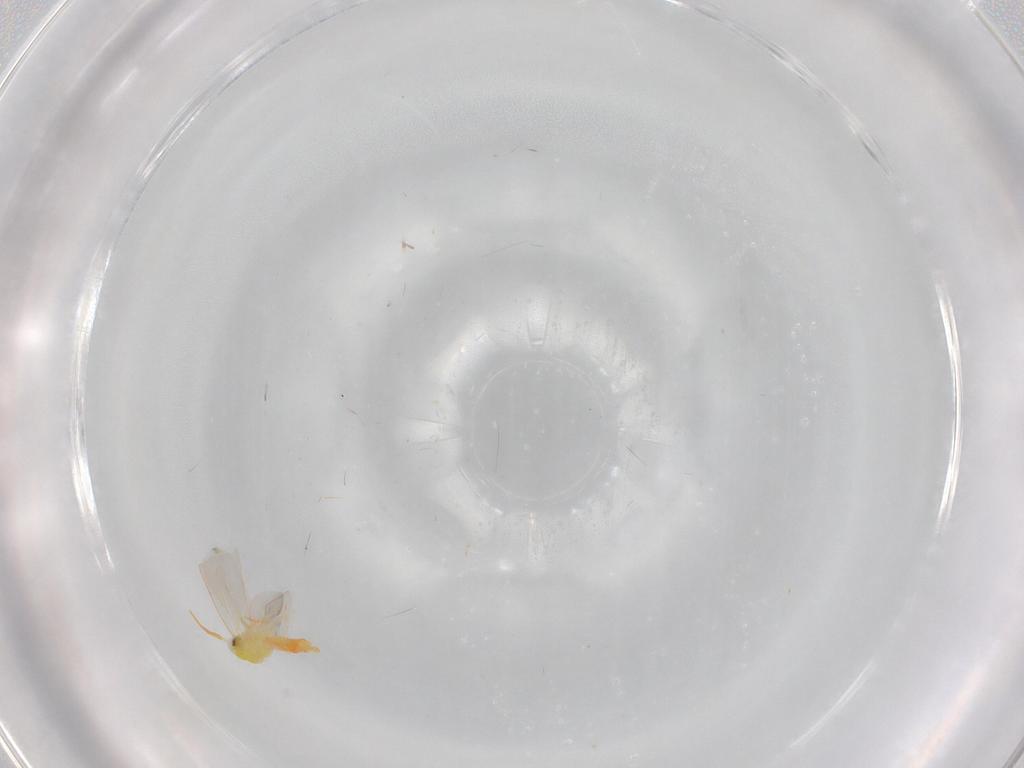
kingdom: Animalia
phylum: Arthropoda
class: Insecta
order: Hemiptera
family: Aleyrodidae
